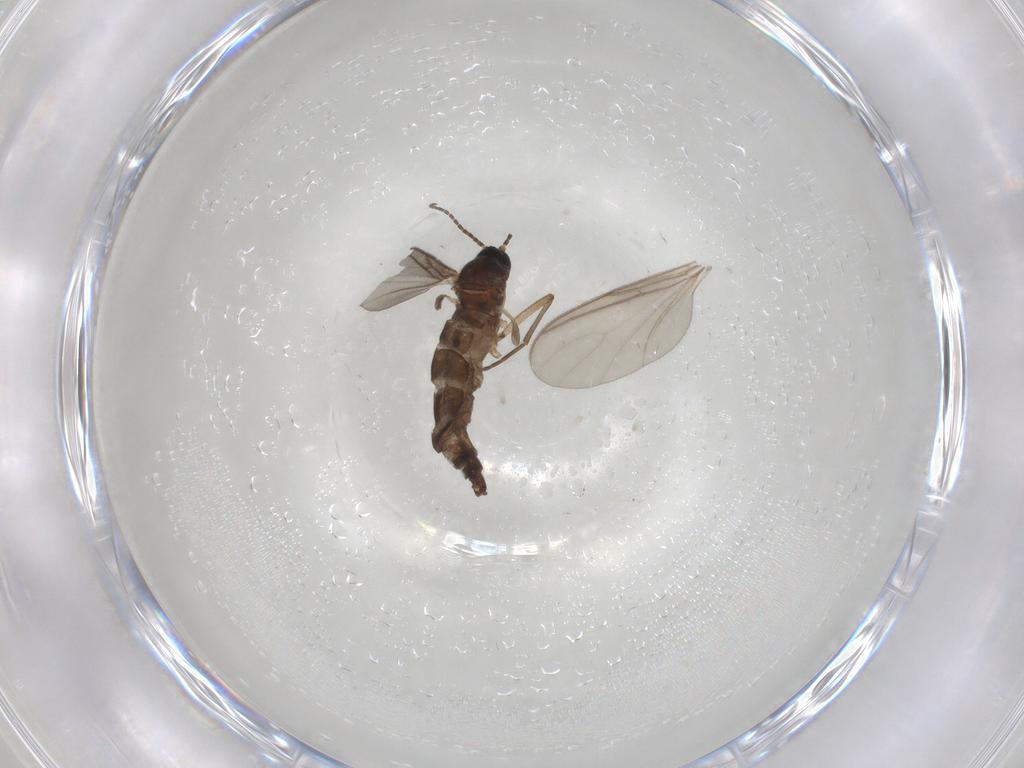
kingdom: Animalia
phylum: Arthropoda
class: Insecta
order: Diptera
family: Sciaridae
